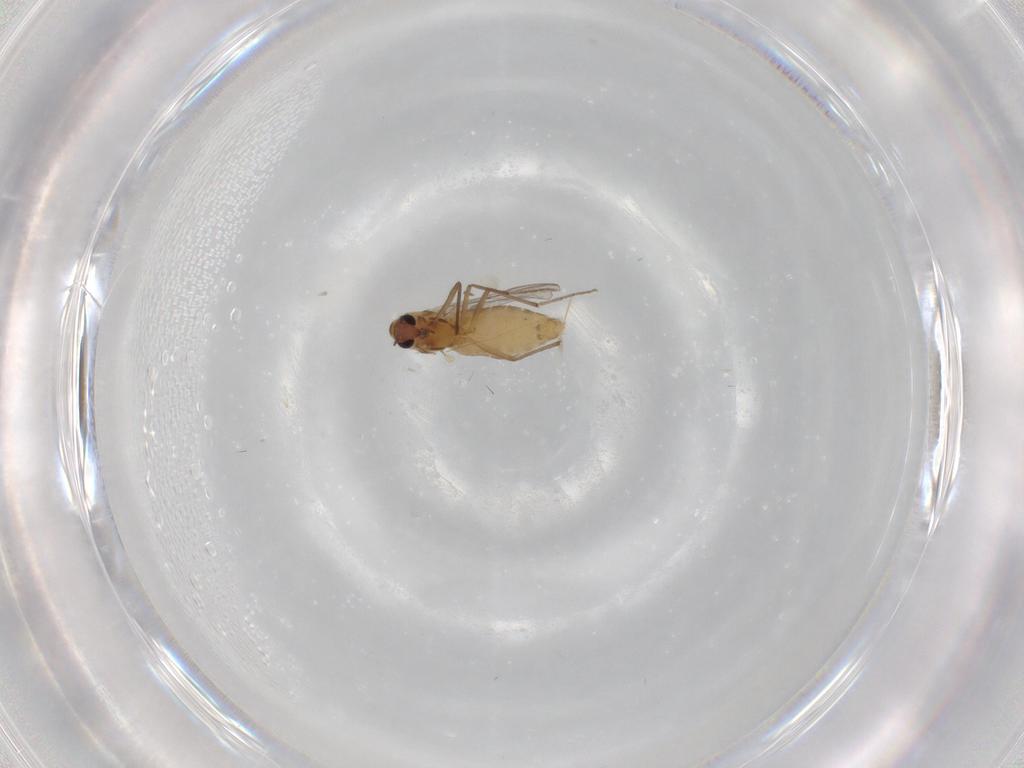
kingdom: Animalia
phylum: Arthropoda
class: Insecta
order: Diptera
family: Chironomidae
